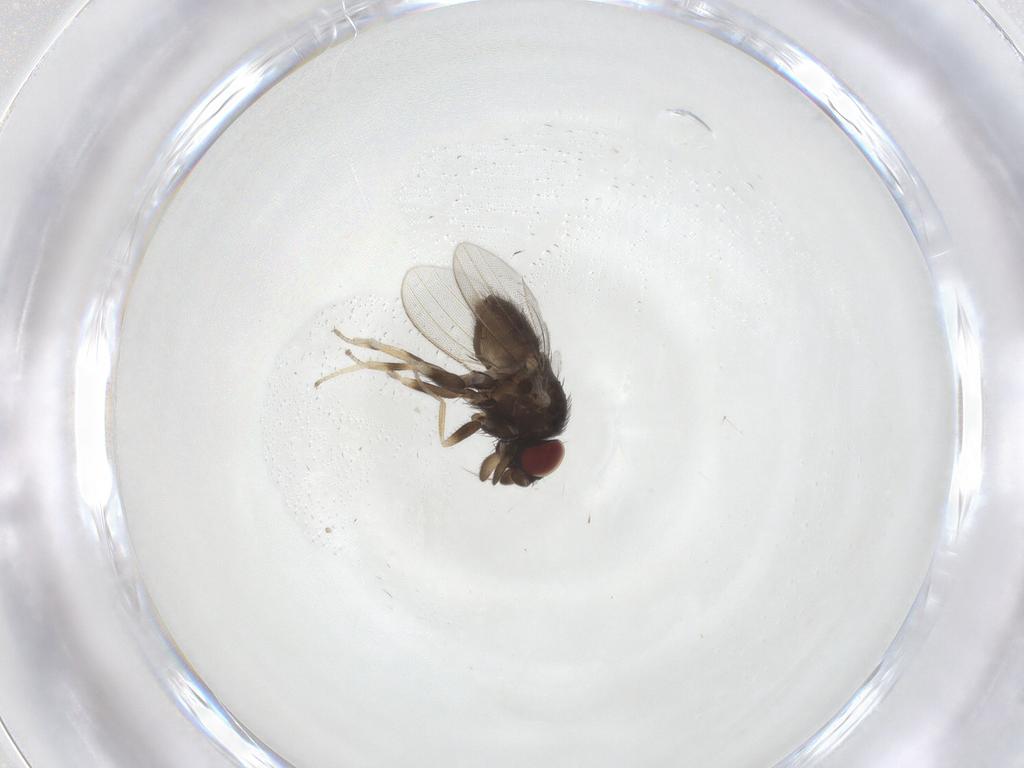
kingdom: Animalia
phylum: Arthropoda
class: Insecta
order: Diptera
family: Milichiidae
